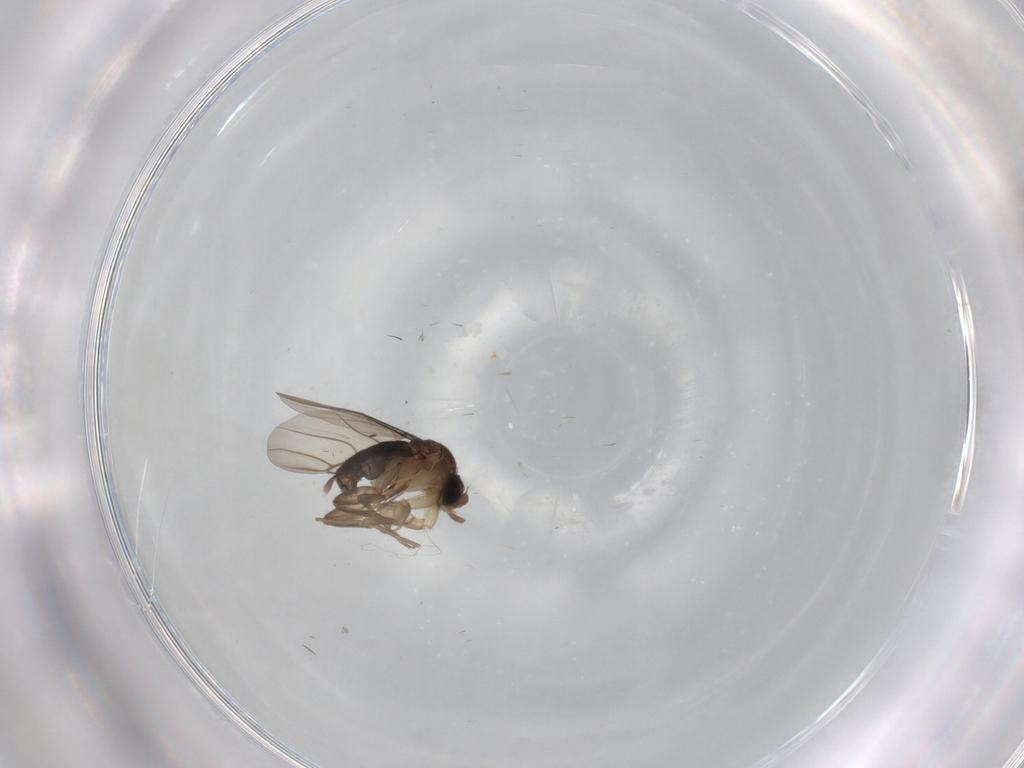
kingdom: Animalia
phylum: Arthropoda
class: Insecta
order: Diptera
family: Phoridae
